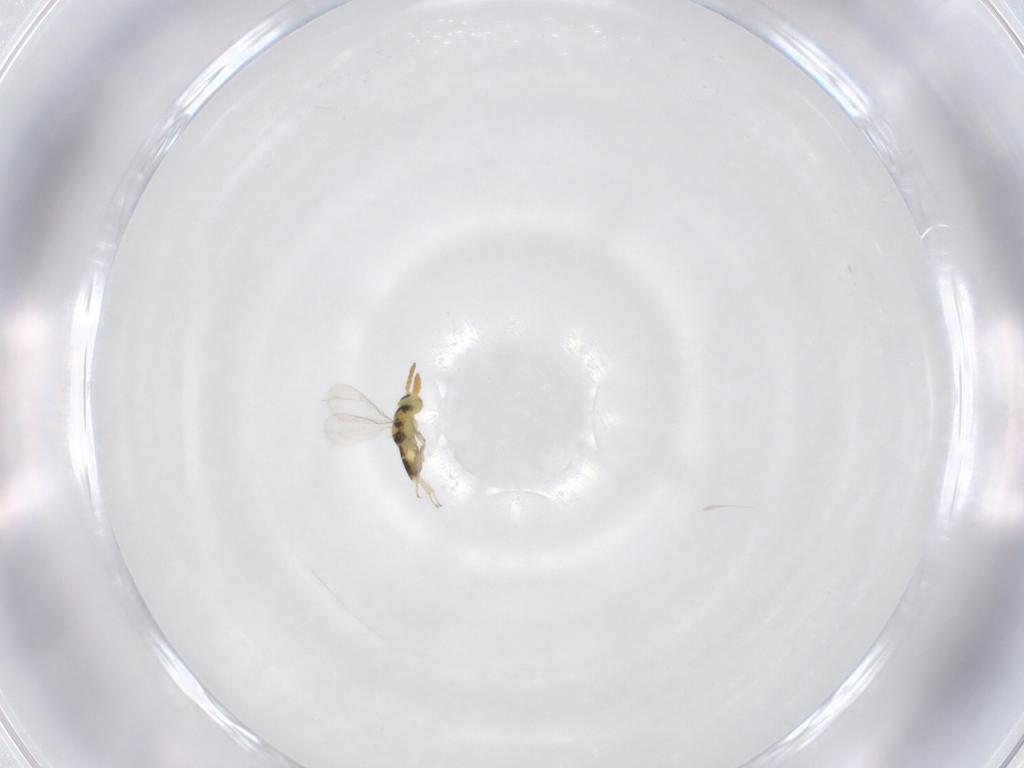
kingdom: Animalia
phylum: Arthropoda
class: Insecta
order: Hymenoptera
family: Aphelinidae
